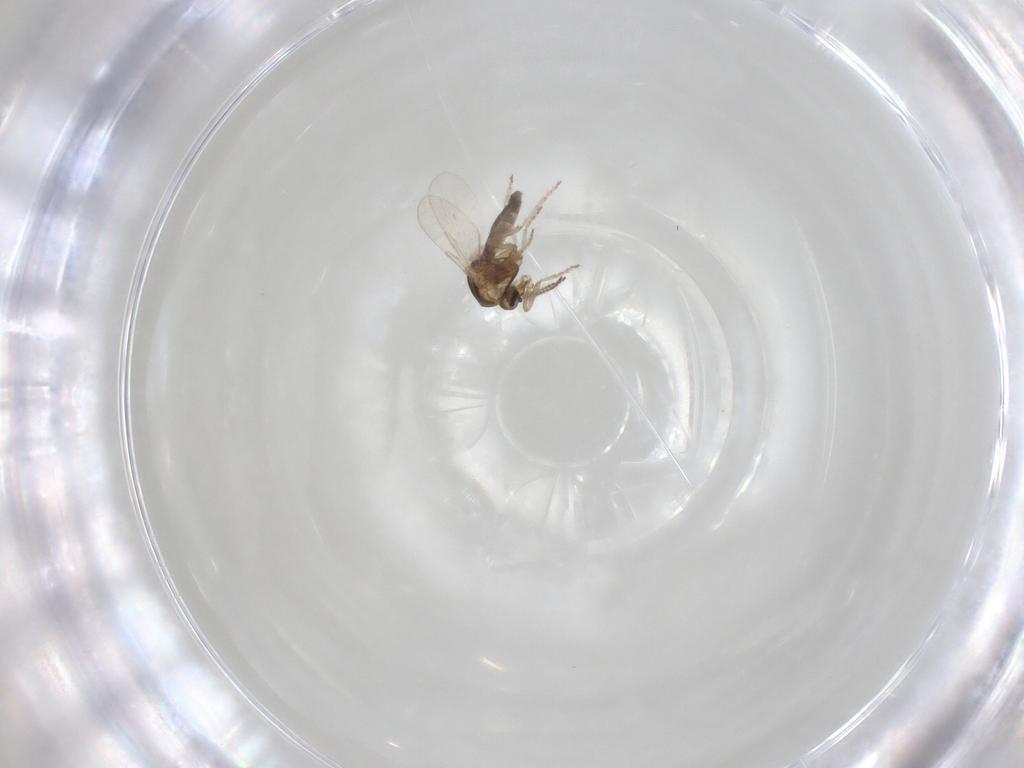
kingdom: Animalia
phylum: Arthropoda
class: Insecta
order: Diptera
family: Ceratopogonidae
